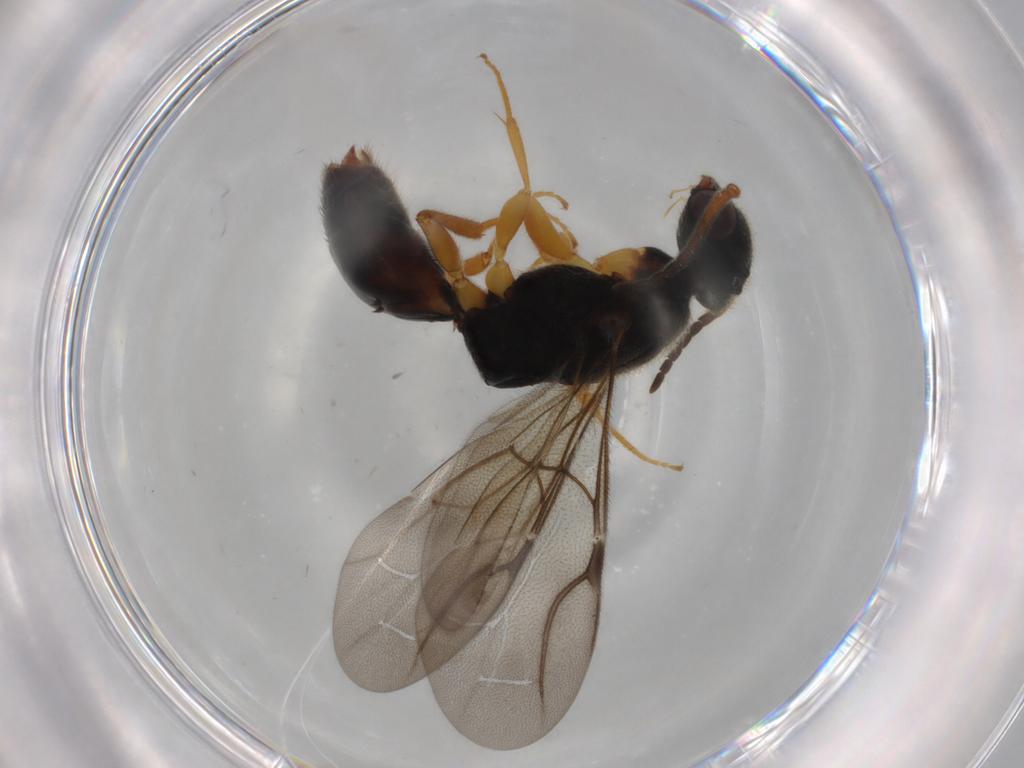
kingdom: Animalia
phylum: Arthropoda
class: Insecta
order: Hymenoptera
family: Bethylidae
